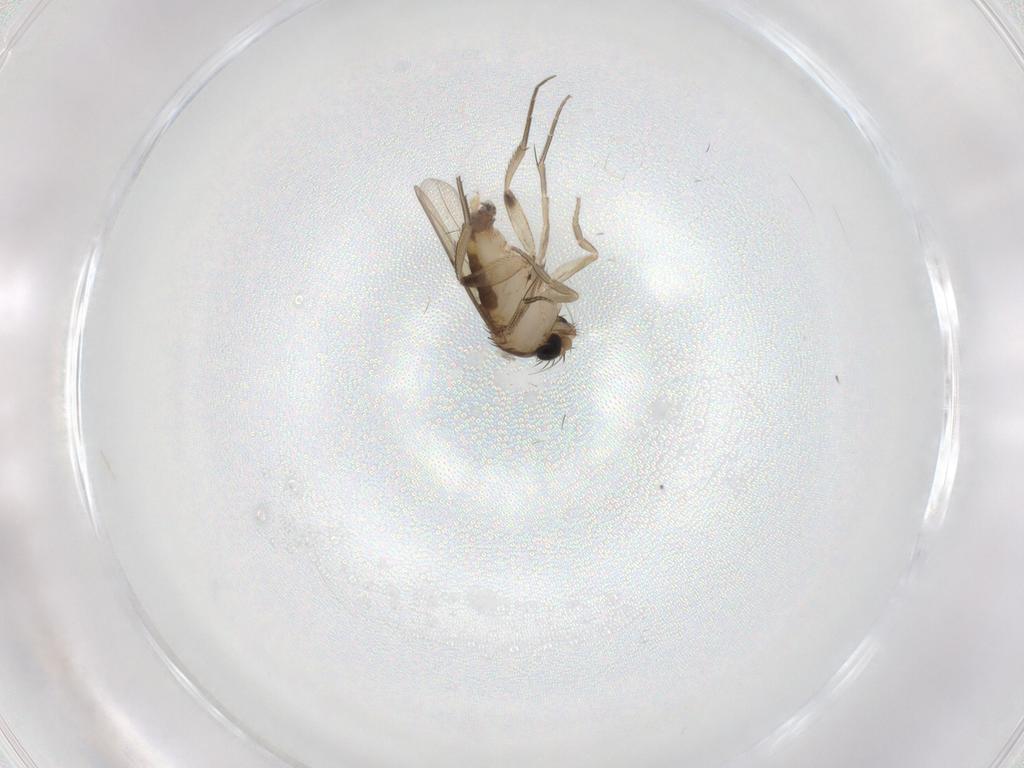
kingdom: Animalia
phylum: Arthropoda
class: Insecta
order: Diptera
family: Phoridae
